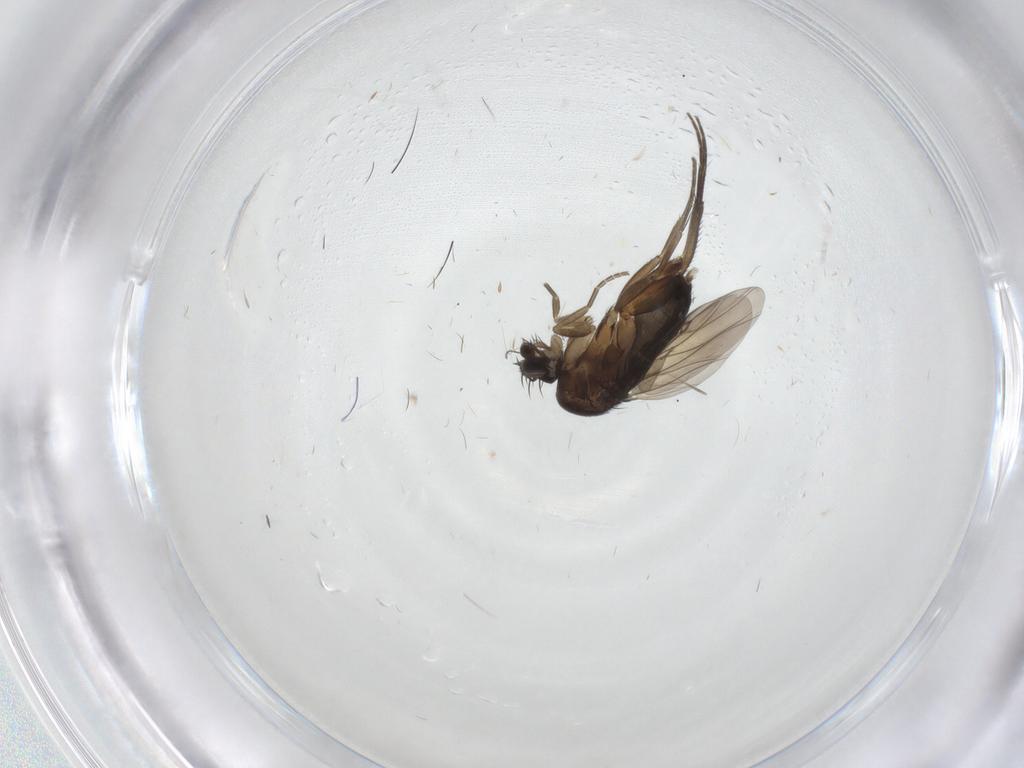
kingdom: Animalia
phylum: Arthropoda
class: Insecta
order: Diptera
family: Phoridae
